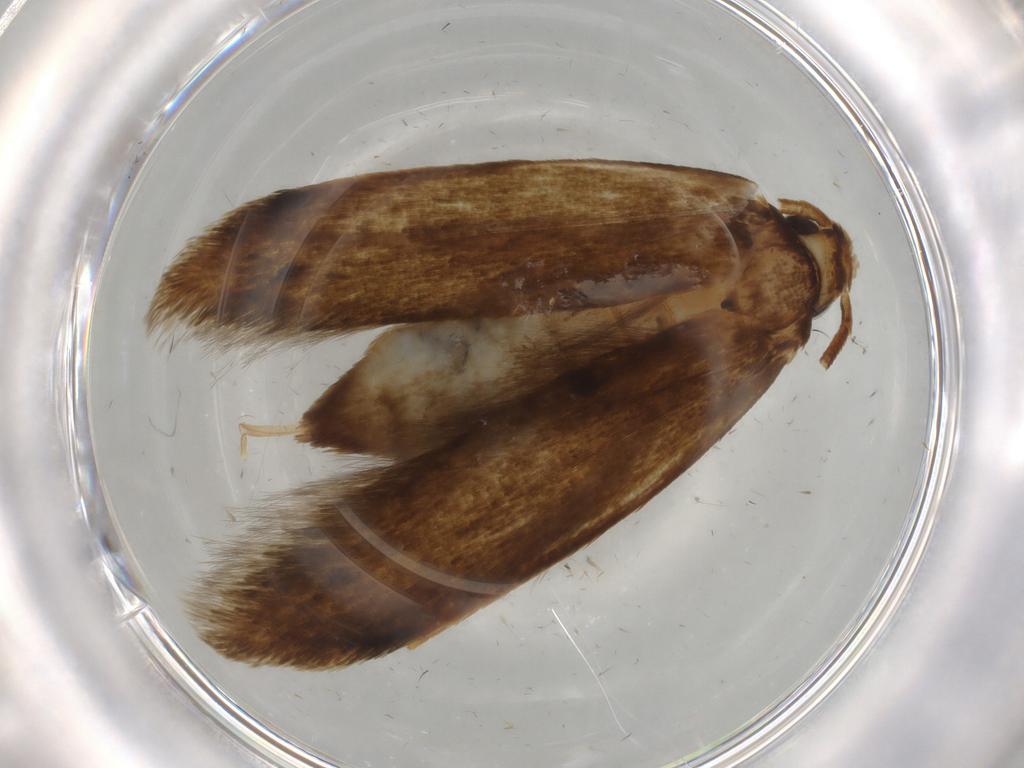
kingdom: Animalia
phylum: Arthropoda
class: Insecta
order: Lepidoptera
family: Tineidae
